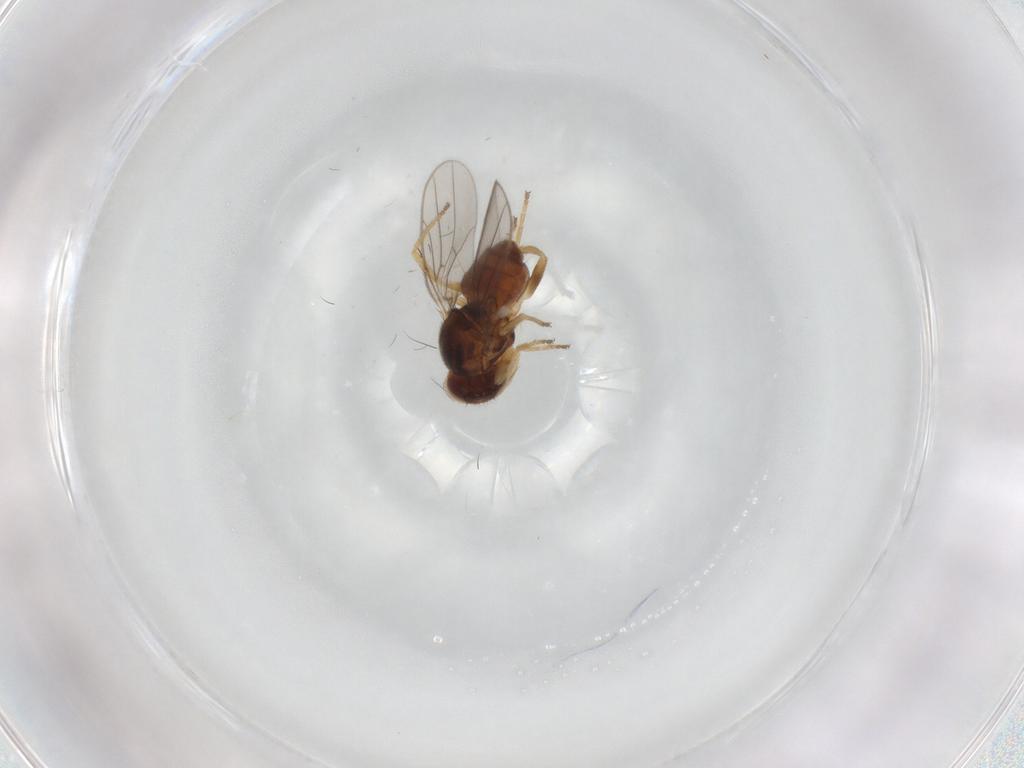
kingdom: Animalia
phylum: Arthropoda
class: Insecta
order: Diptera
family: Chloropidae
